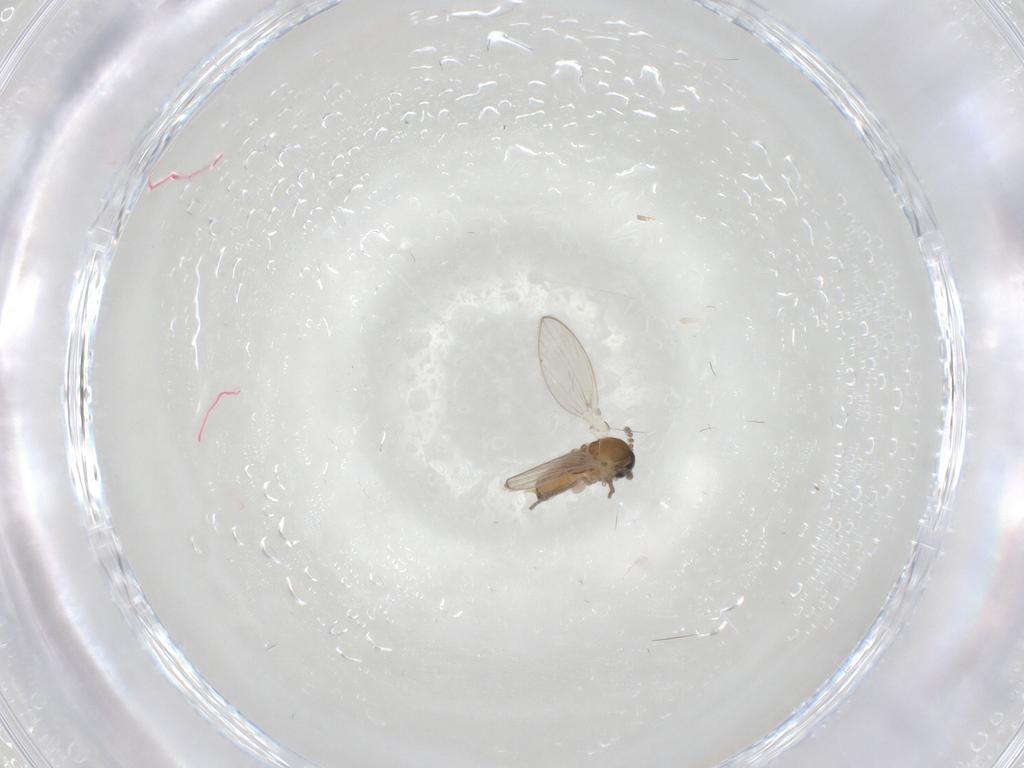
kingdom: Animalia
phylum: Arthropoda
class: Insecta
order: Diptera
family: Psychodidae
